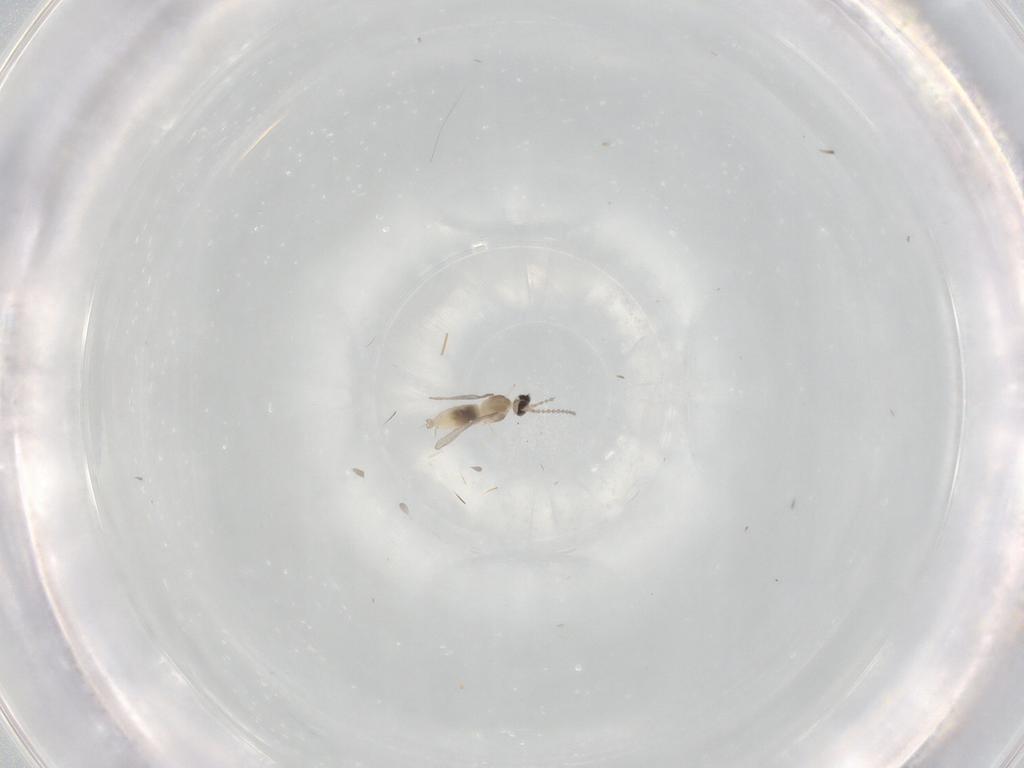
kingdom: Animalia
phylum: Arthropoda
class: Insecta
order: Diptera
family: Cecidomyiidae
